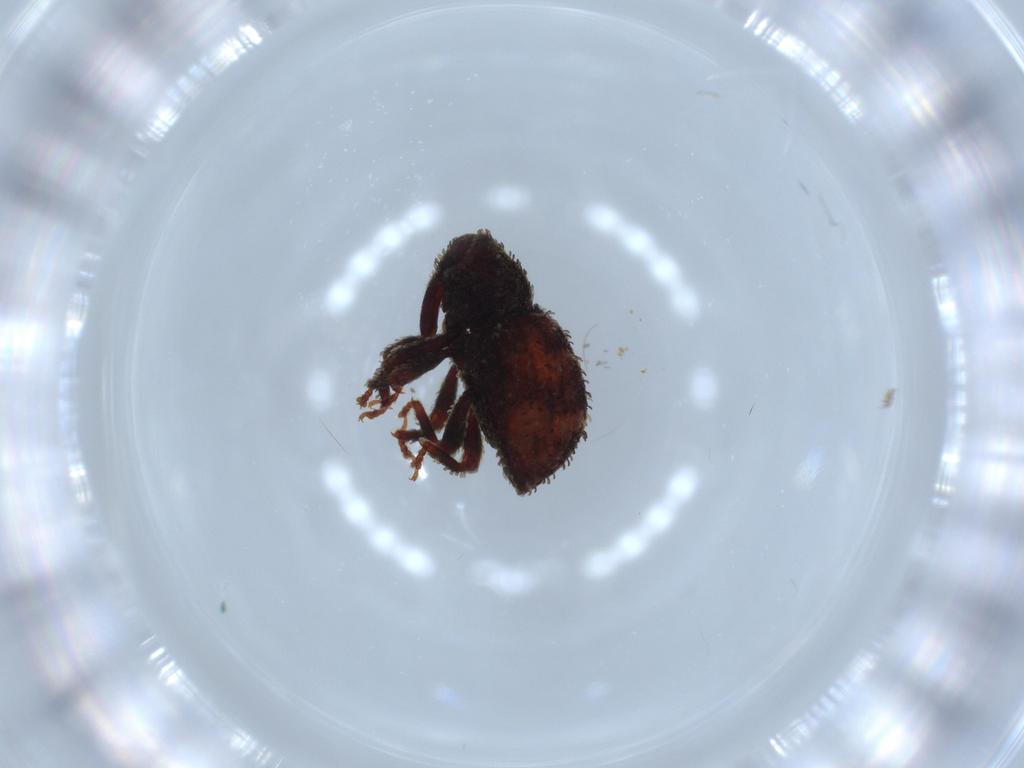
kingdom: Animalia
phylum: Arthropoda
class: Insecta
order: Coleoptera
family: Curculionidae
